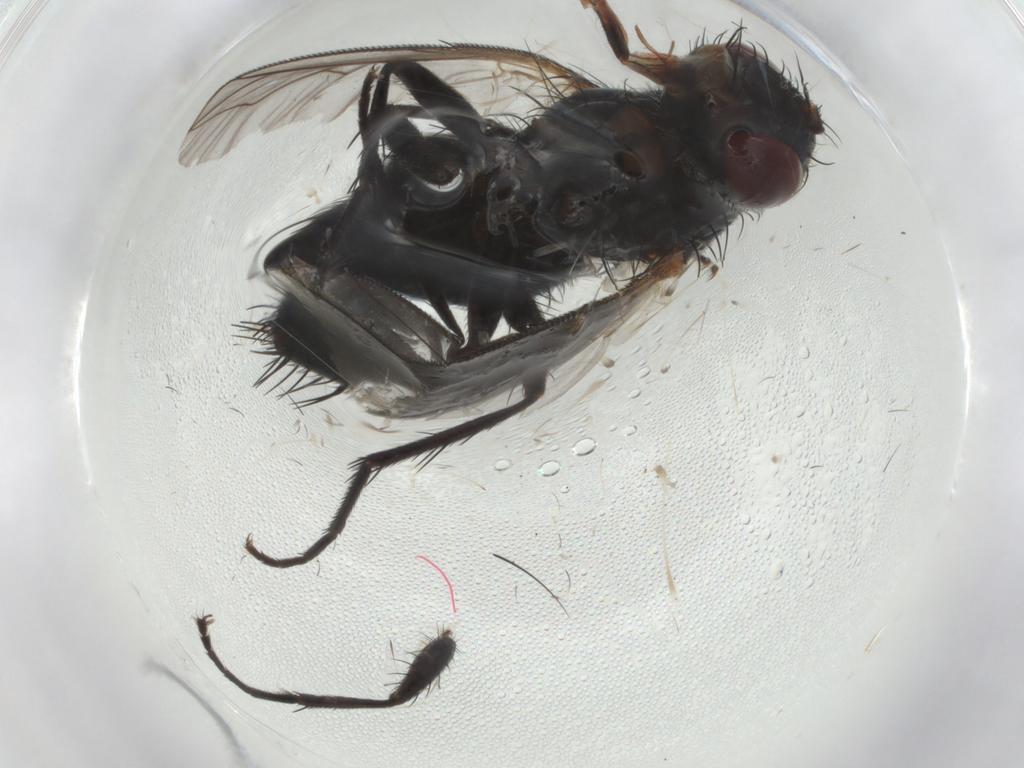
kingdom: Animalia
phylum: Arthropoda
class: Insecta
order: Diptera
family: Tachinidae
